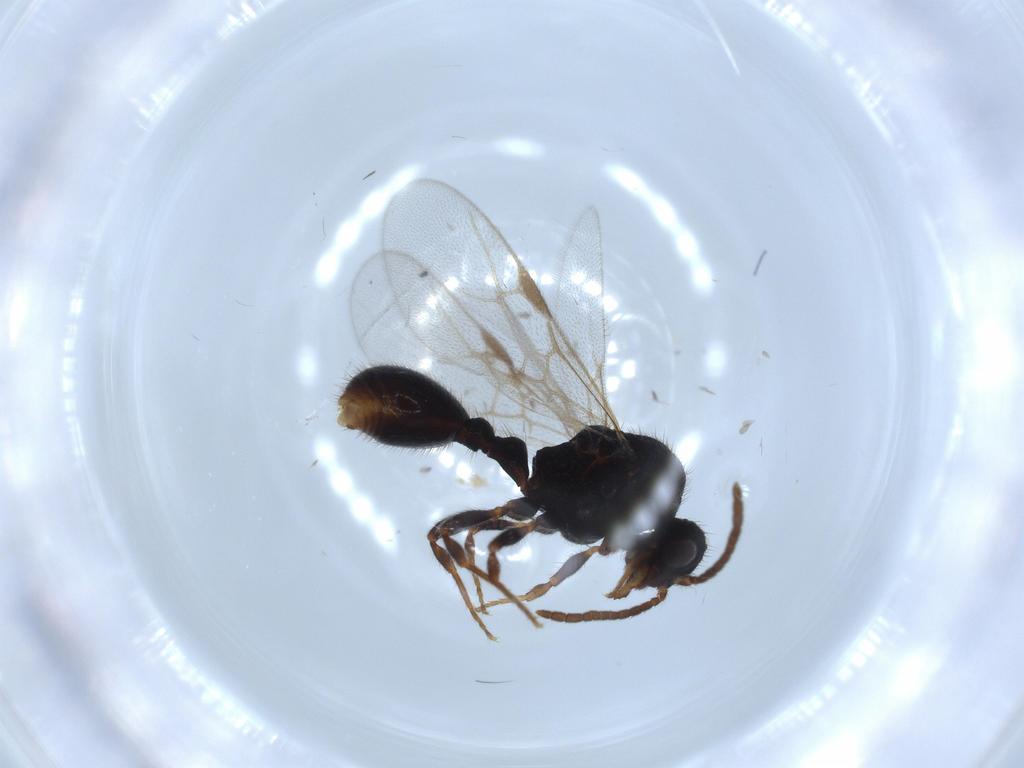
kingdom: Animalia
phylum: Arthropoda
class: Insecta
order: Hymenoptera
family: Formicidae
